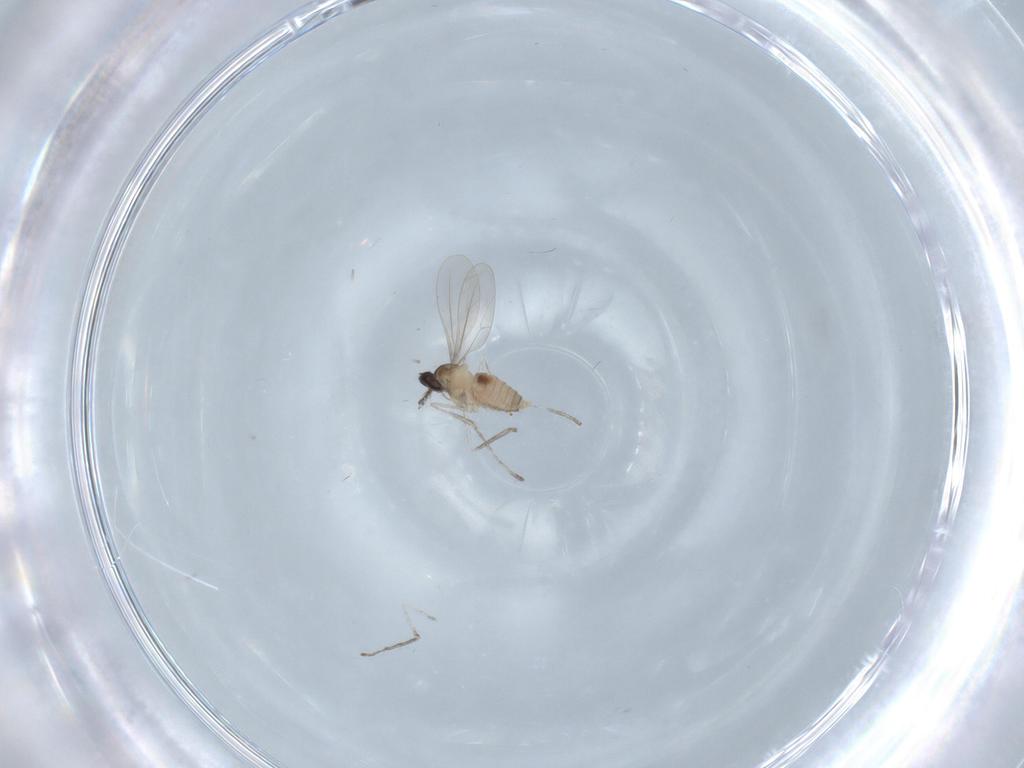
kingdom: Animalia
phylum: Arthropoda
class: Insecta
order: Diptera
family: Cecidomyiidae
